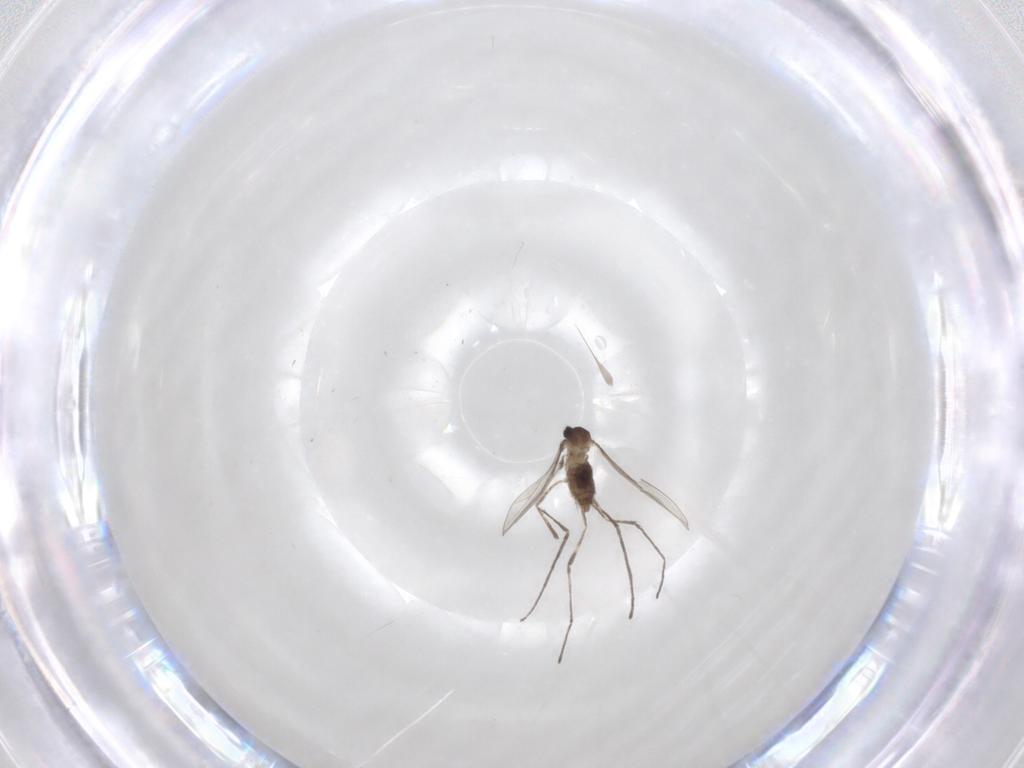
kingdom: Animalia
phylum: Arthropoda
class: Insecta
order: Diptera
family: Cecidomyiidae
